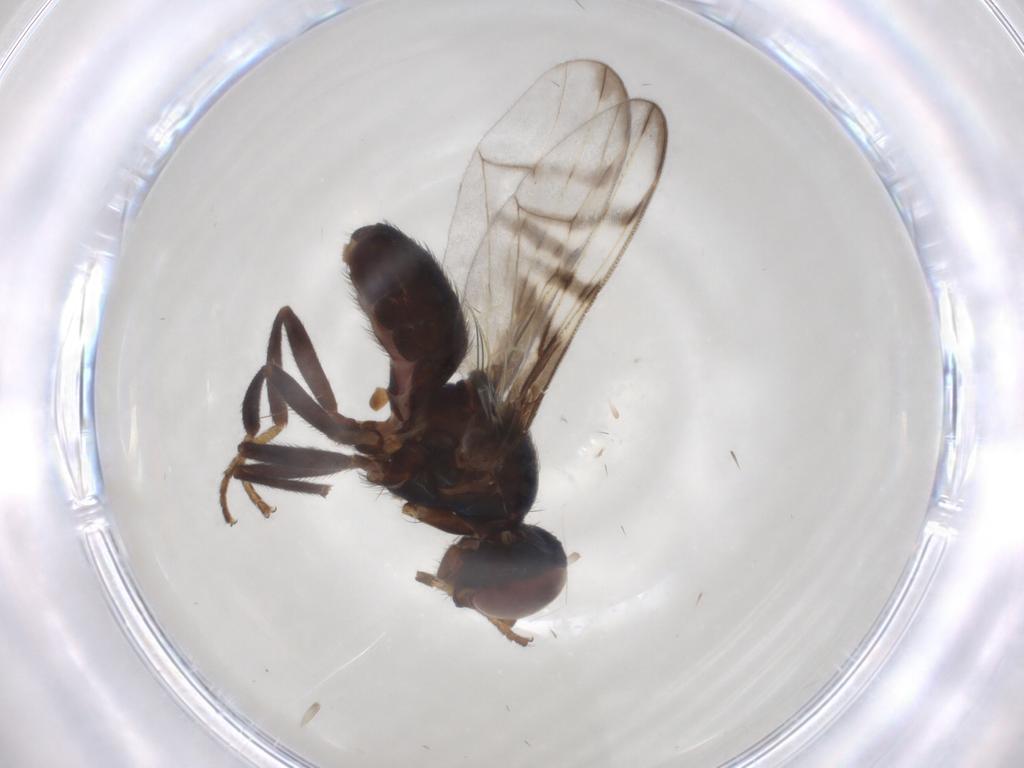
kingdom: Animalia
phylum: Arthropoda
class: Insecta
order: Diptera
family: Platystomatidae
